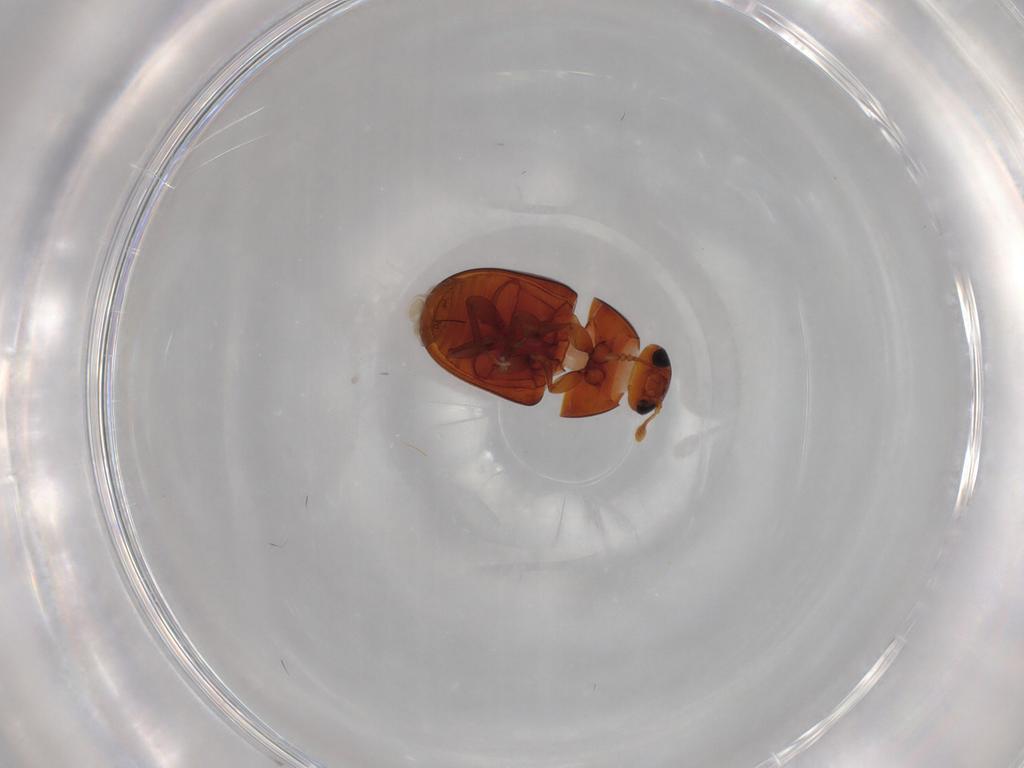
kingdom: Animalia
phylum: Arthropoda
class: Insecta
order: Coleoptera
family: Phalacridae
